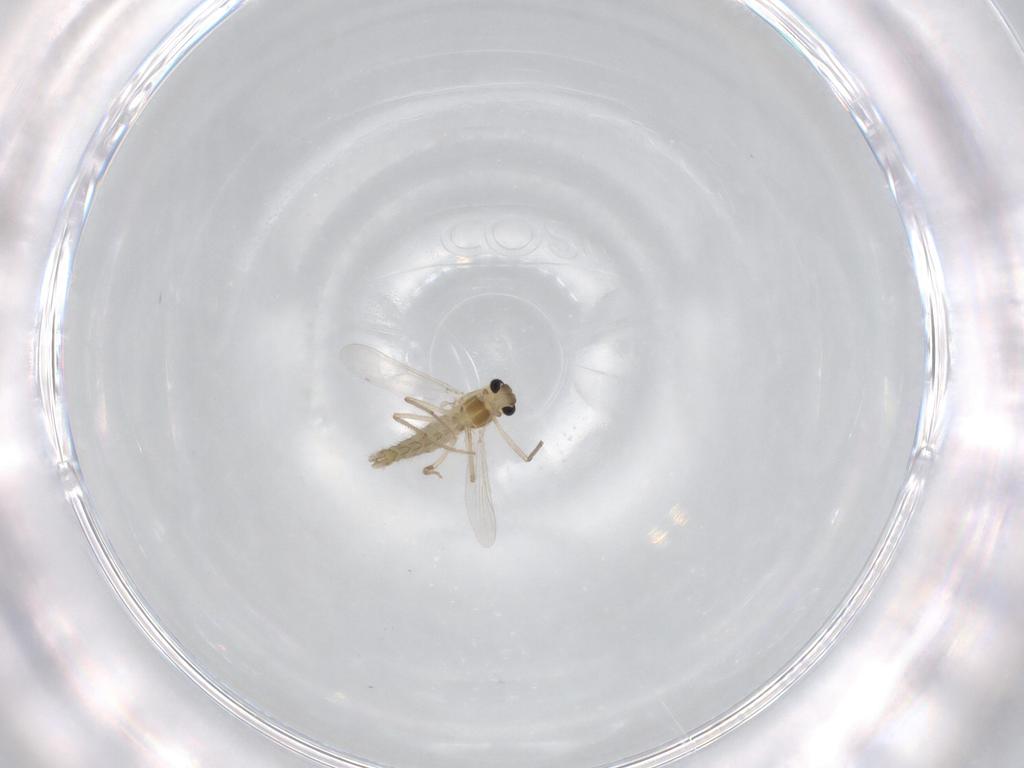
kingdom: Animalia
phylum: Arthropoda
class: Insecta
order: Diptera
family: Chironomidae
